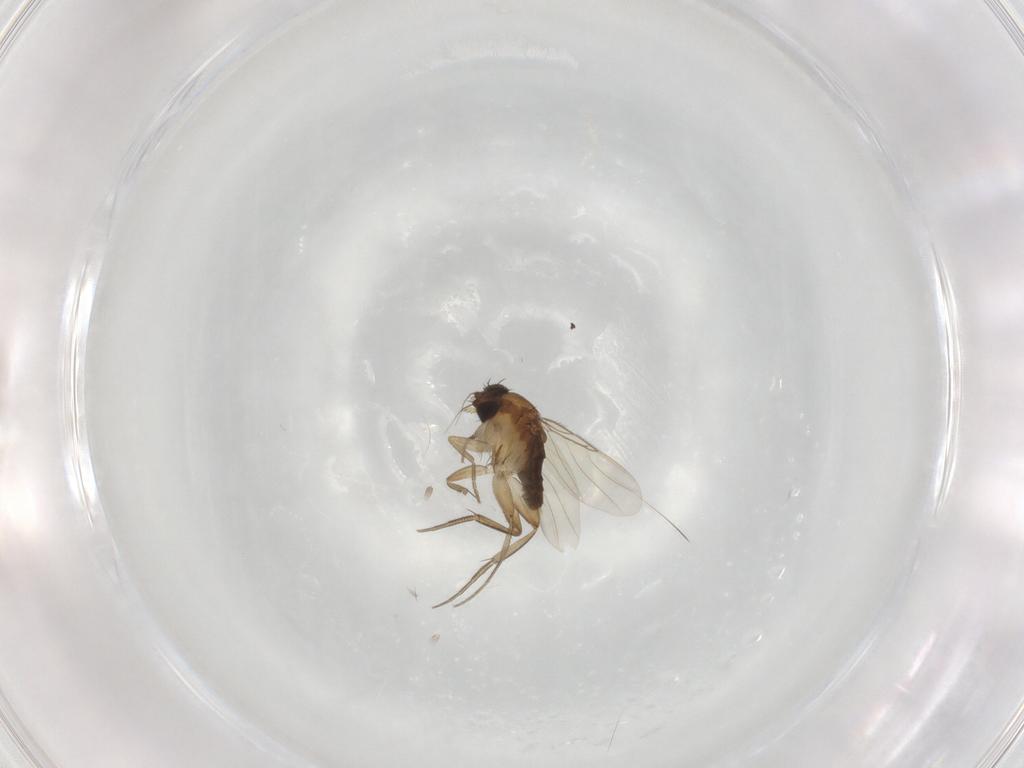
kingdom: Animalia
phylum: Arthropoda
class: Insecta
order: Diptera
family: Phoridae
